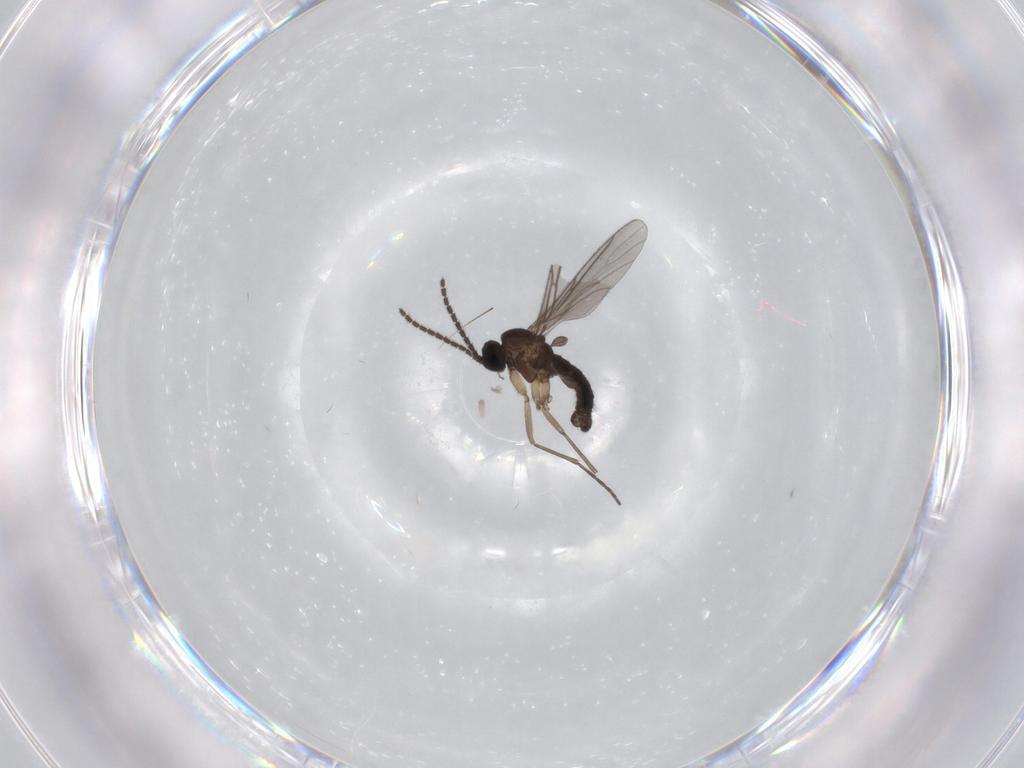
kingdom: Animalia
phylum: Arthropoda
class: Insecta
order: Diptera
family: Sciaridae
